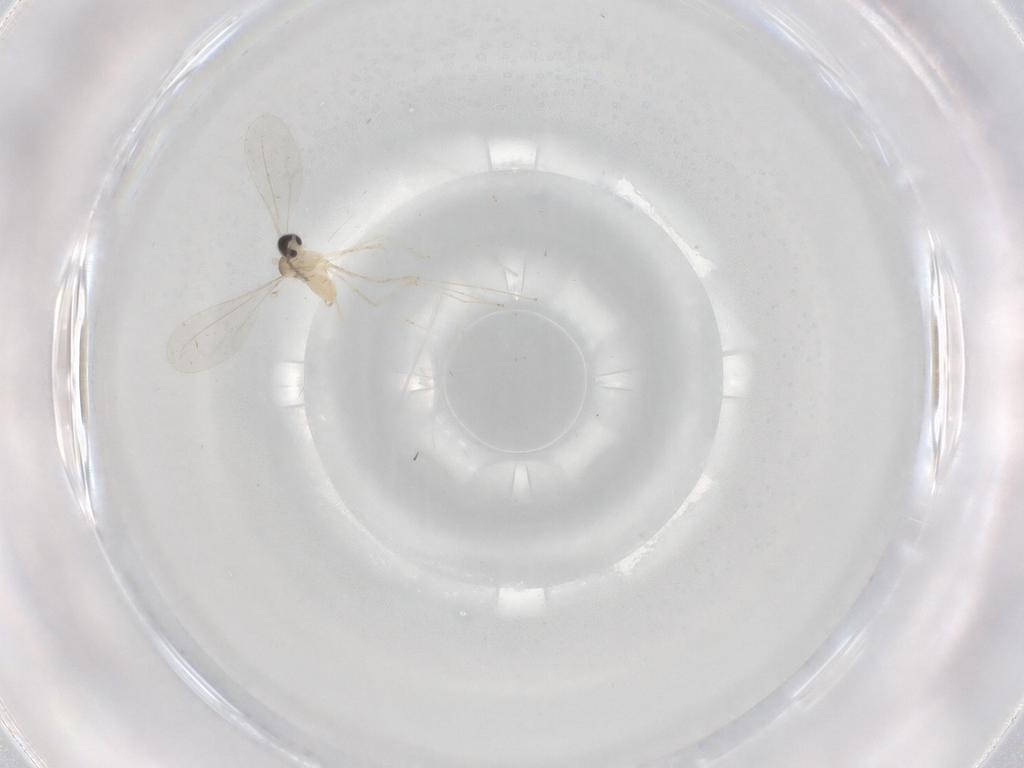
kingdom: Animalia
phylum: Arthropoda
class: Insecta
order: Diptera
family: Cecidomyiidae
